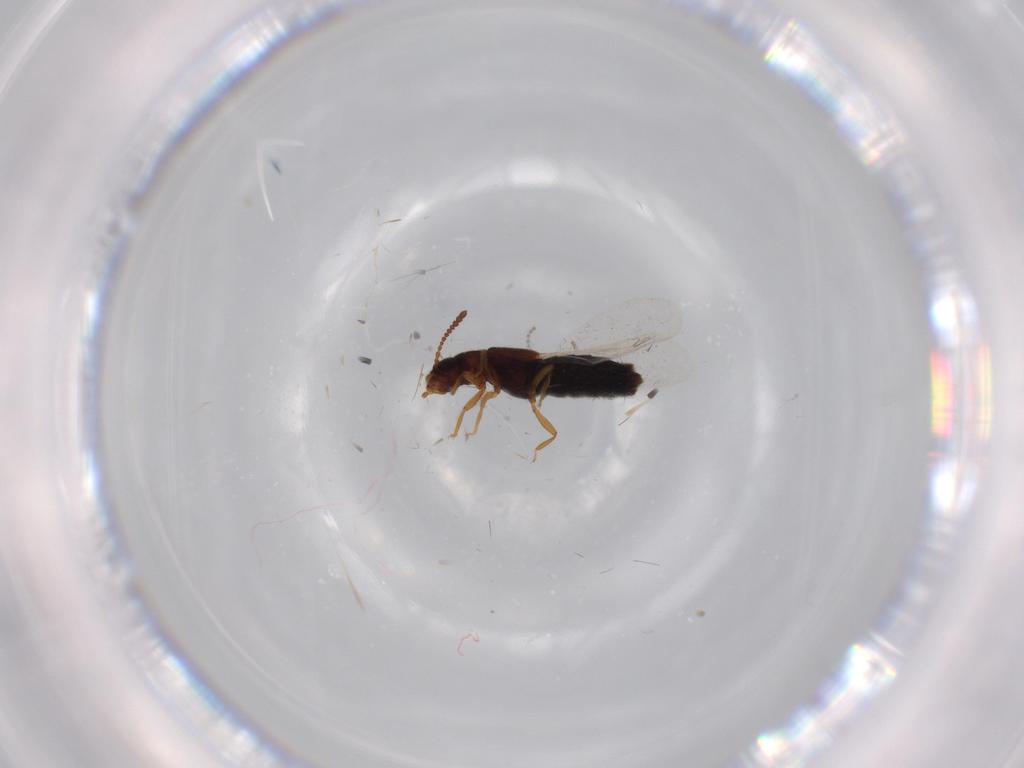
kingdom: Animalia
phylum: Arthropoda
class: Insecta
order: Coleoptera
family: Staphylinidae
